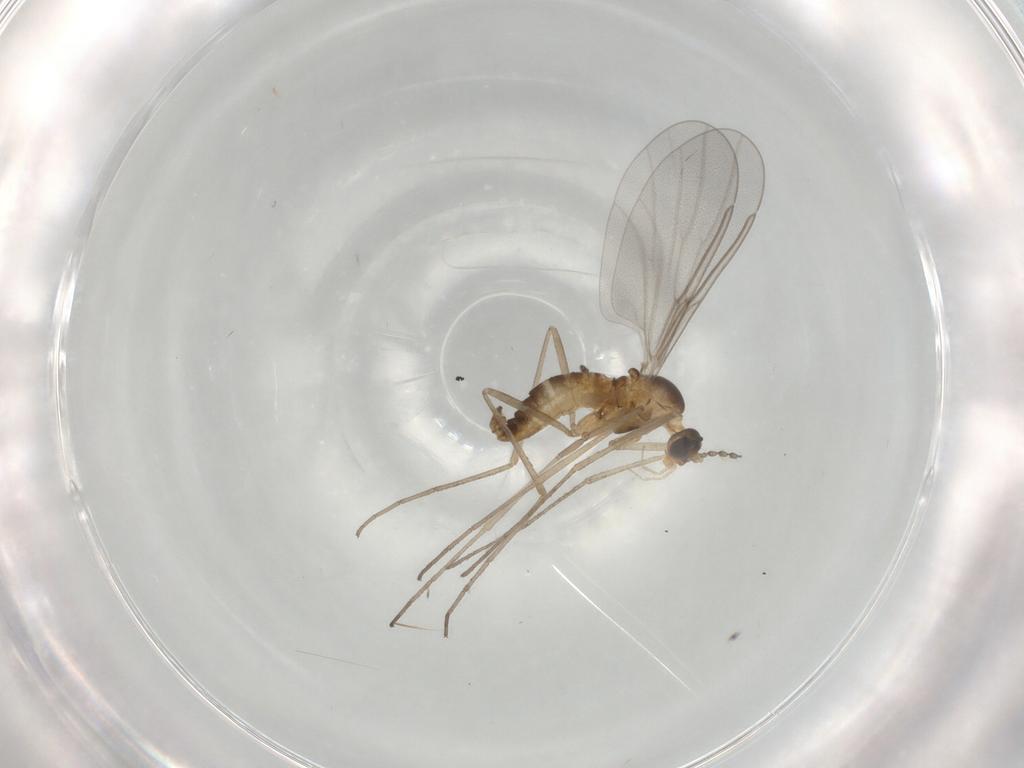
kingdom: Animalia
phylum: Arthropoda
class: Insecta
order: Diptera
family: Cecidomyiidae
